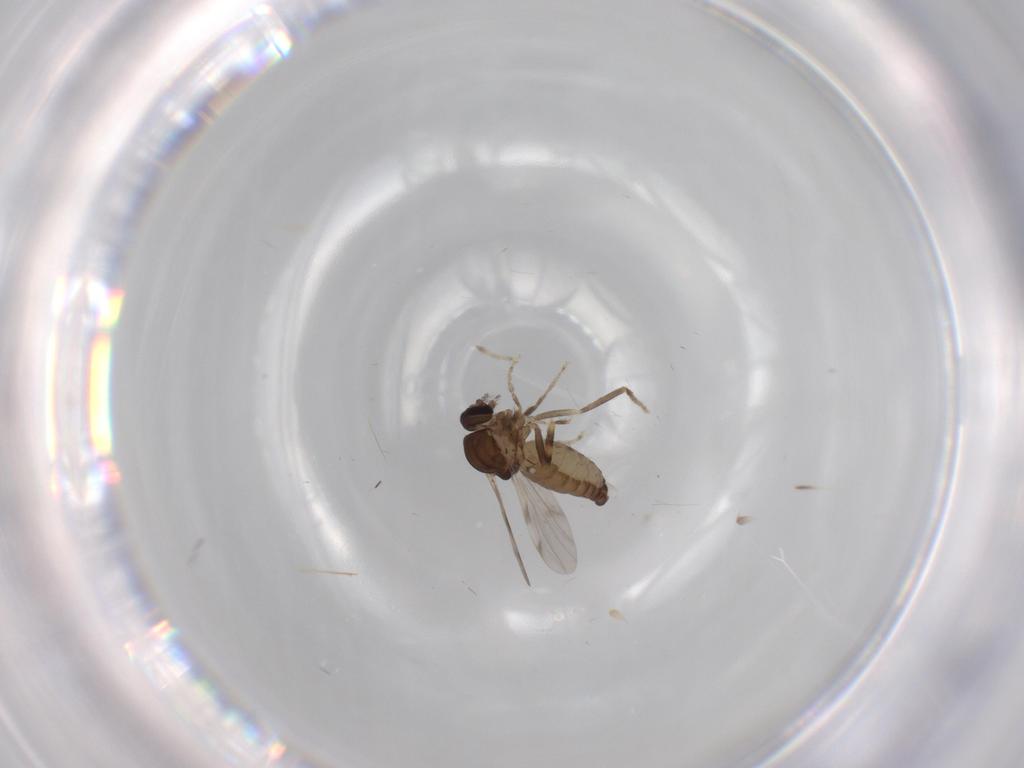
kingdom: Animalia
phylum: Arthropoda
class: Insecta
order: Diptera
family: Ceratopogonidae
